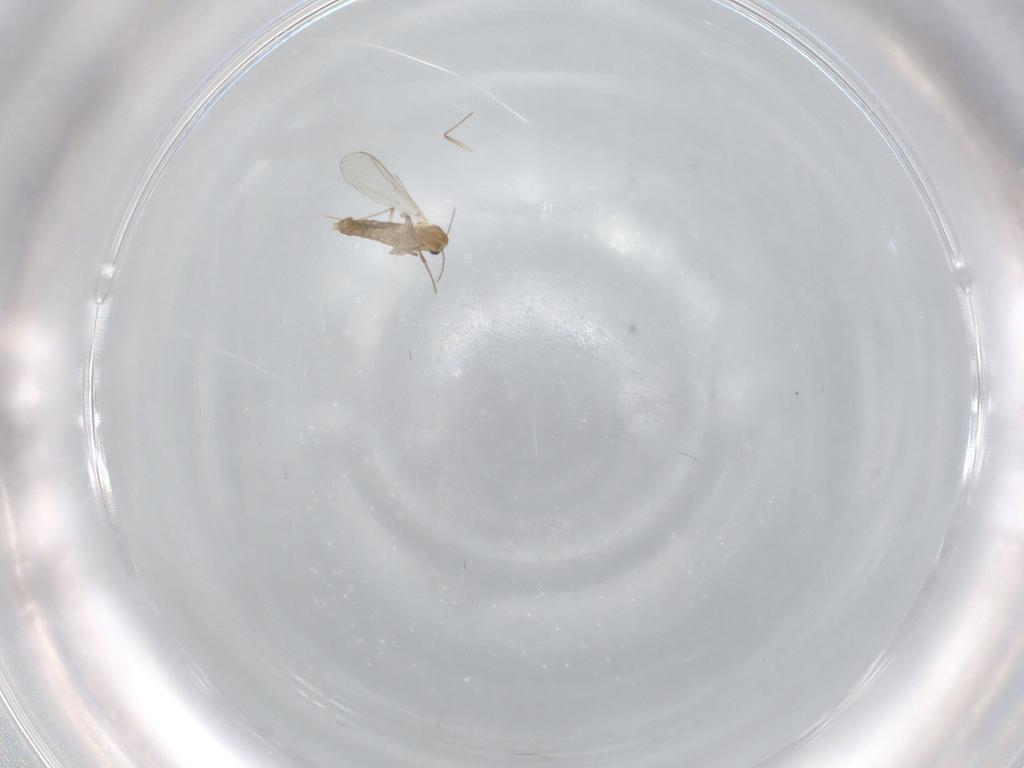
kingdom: Animalia
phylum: Arthropoda
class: Insecta
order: Diptera
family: Chironomidae
